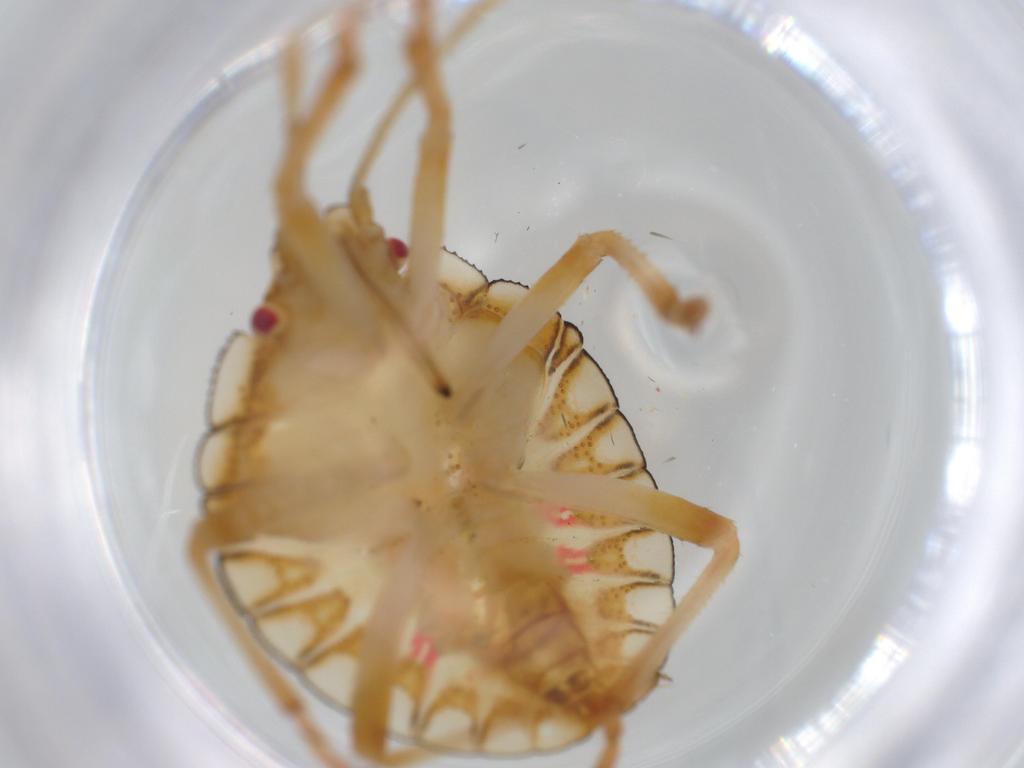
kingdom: Animalia
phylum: Arthropoda
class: Insecta
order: Hemiptera
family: Pentatomidae
